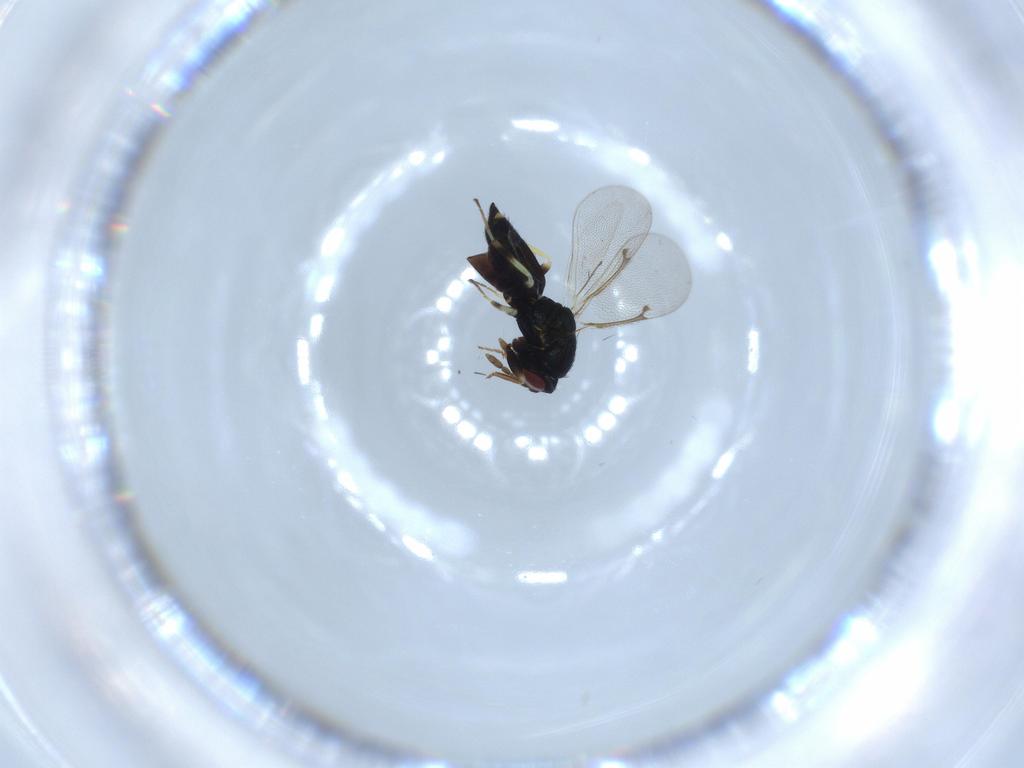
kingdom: Animalia
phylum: Arthropoda
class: Insecta
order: Hymenoptera
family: Eulophidae
